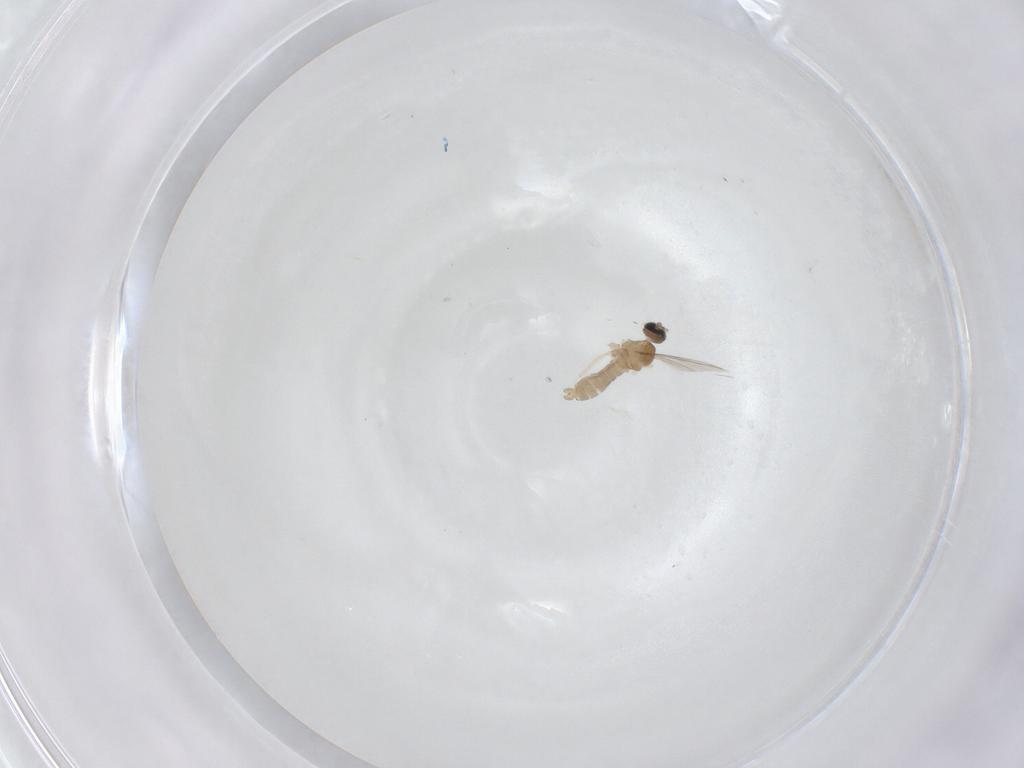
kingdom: Animalia
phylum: Arthropoda
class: Insecta
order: Diptera
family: Cecidomyiidae
